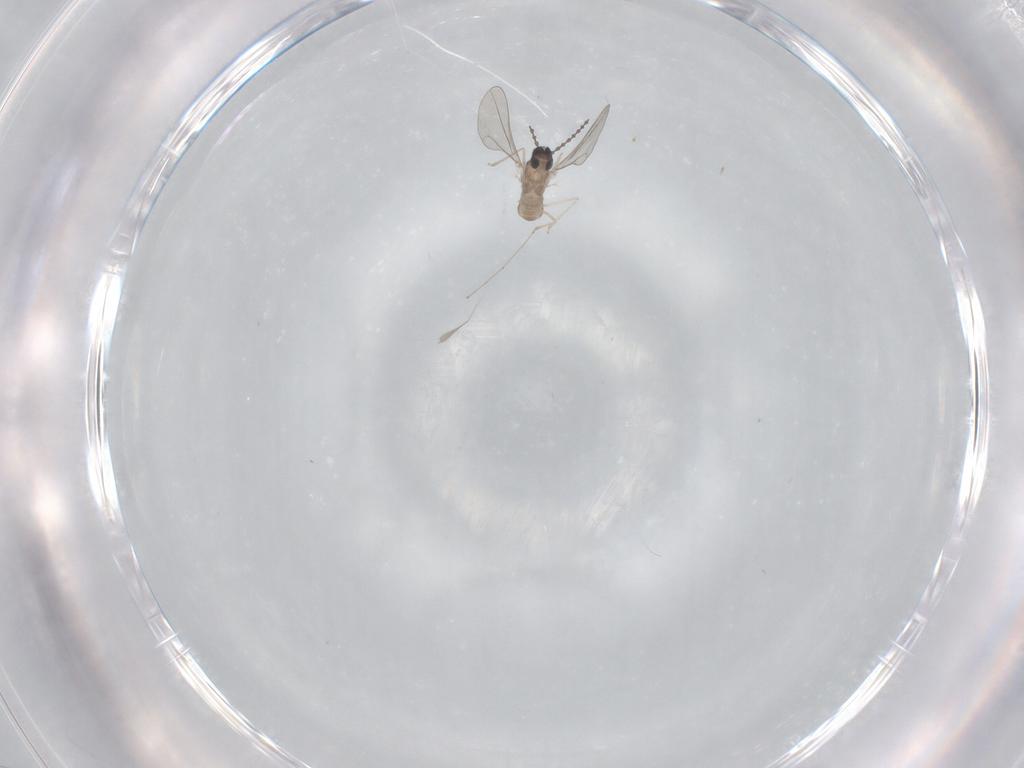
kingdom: Animalia
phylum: Arthropoda
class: Insecta
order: Diptera
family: Cecidomyiidae
